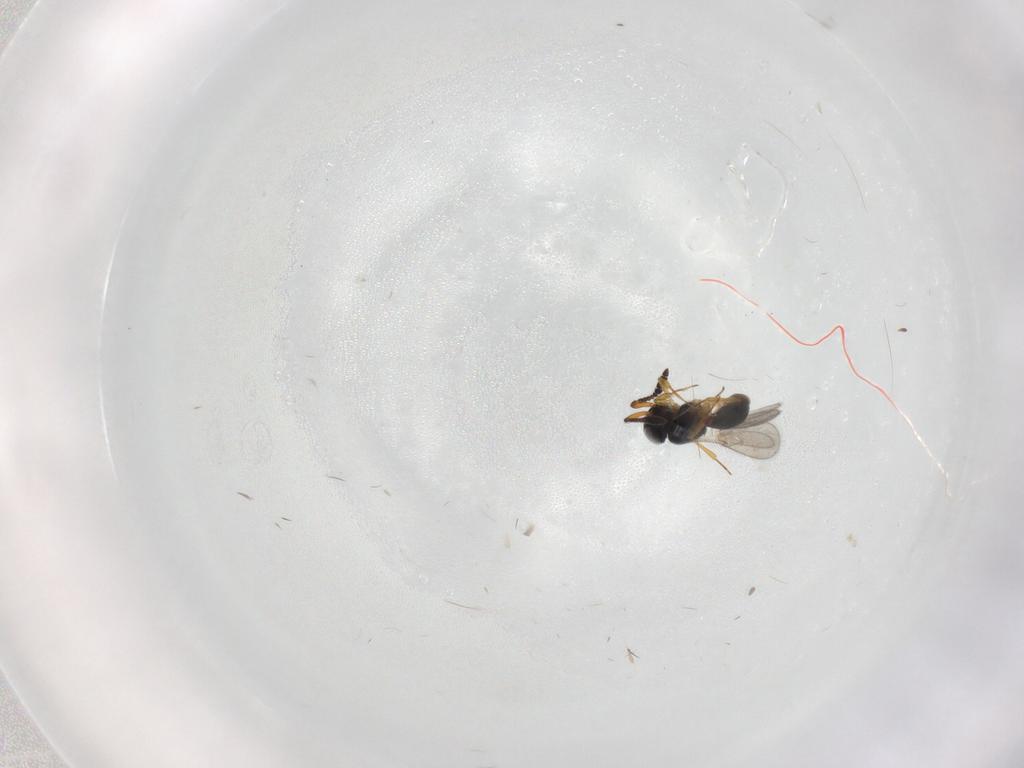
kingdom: Animalia
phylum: Arthropoda
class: Insecta
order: Hymenoptera
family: Scelionidae
